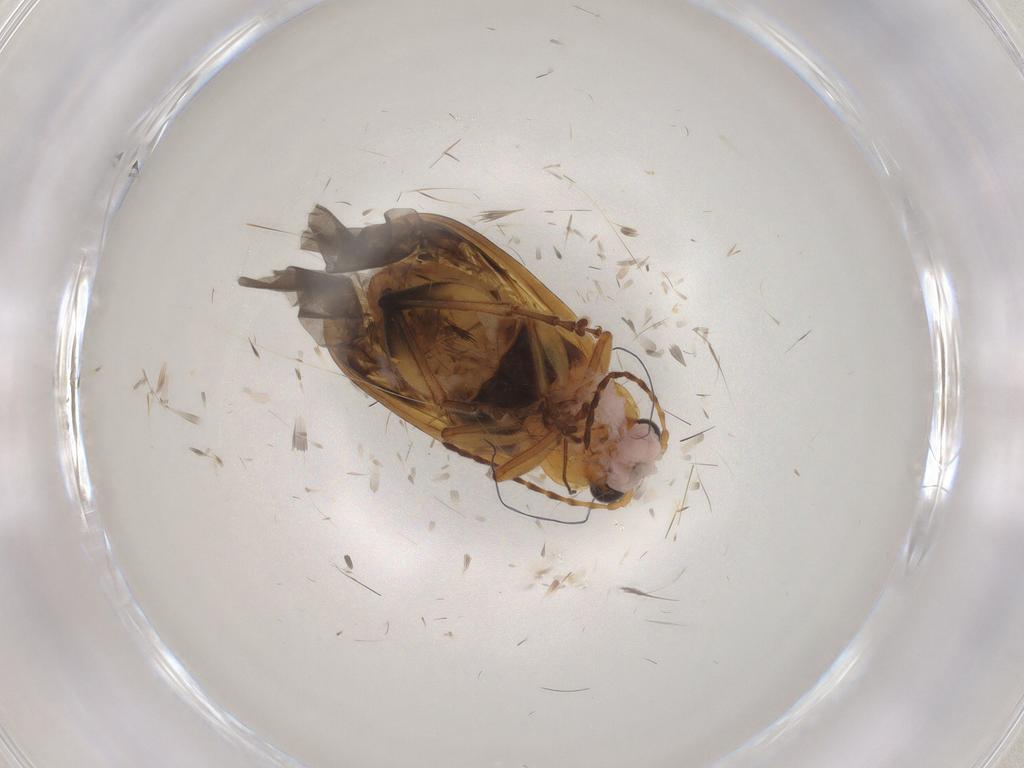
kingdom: Animalia
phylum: Arthropoda
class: Insecta
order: Coleoptera
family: Chrysomelidae
